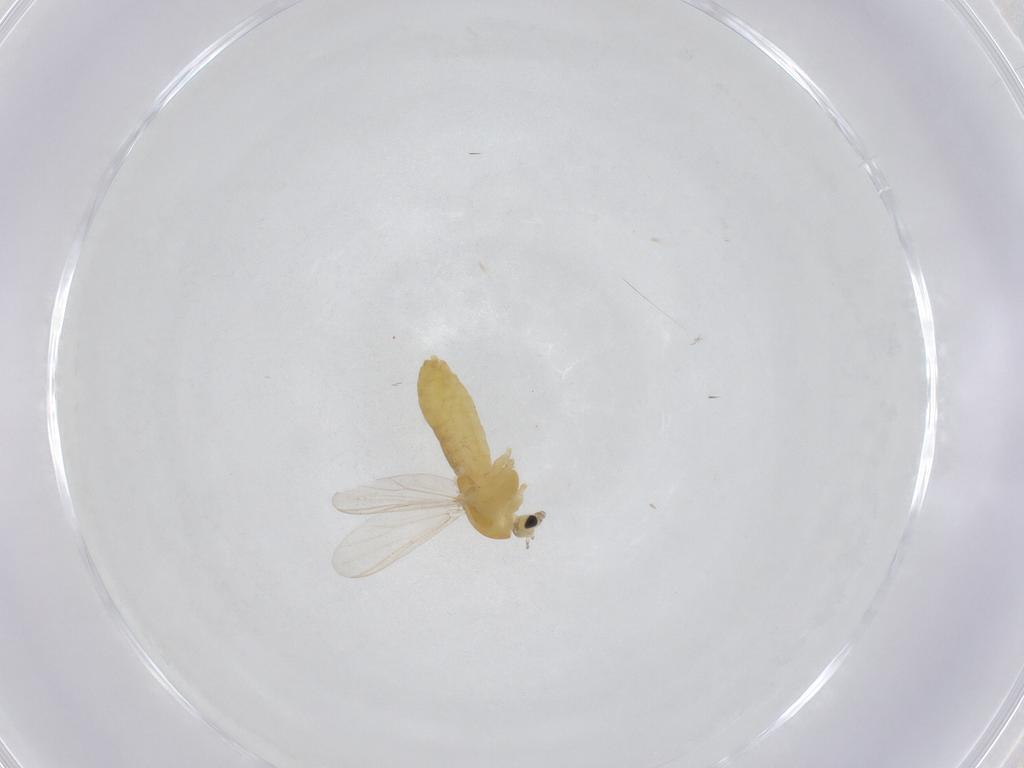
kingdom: Animalia
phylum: Arthropoda
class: Insecta
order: Diptera
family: Chironomidae
